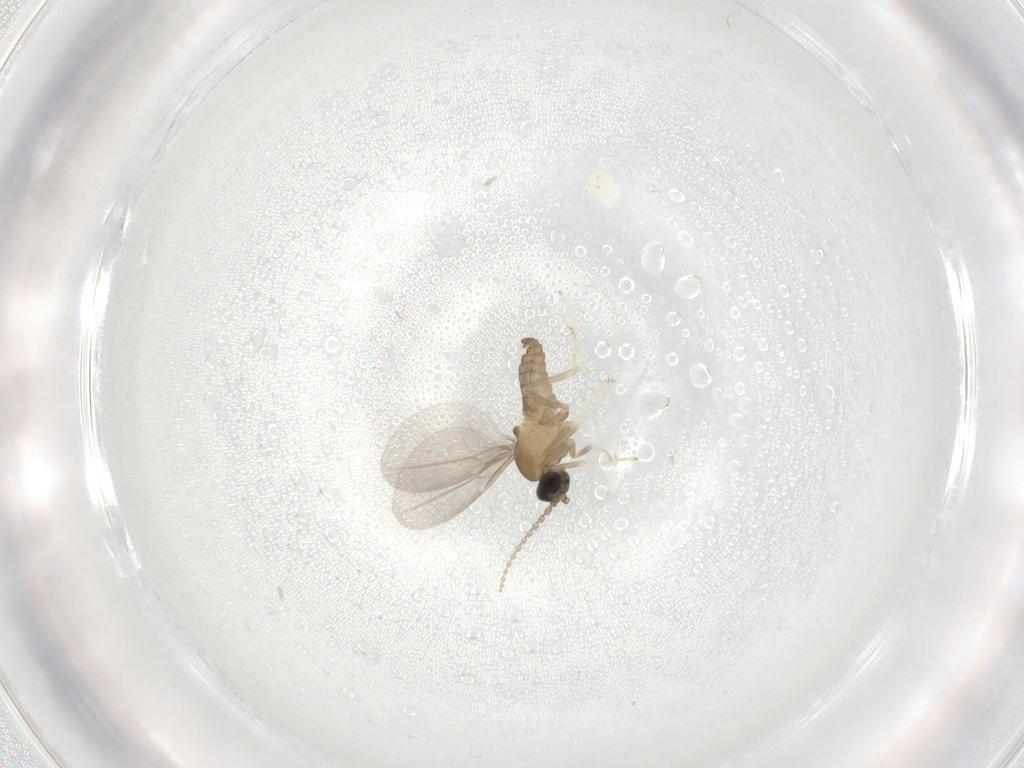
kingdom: Animalia
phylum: Arthropoda
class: Insecta
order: Diptera
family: Cecidomyiidae
